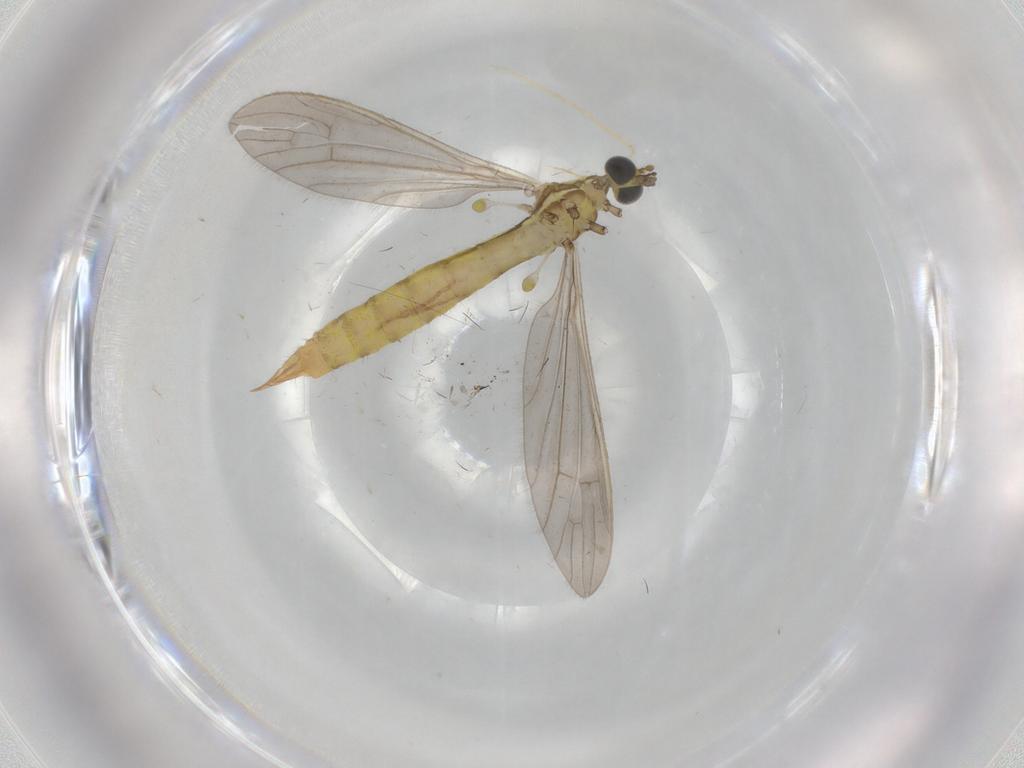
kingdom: Animalia
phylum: Arthropoda
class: Insecta
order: Diptera
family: Limoniidae
